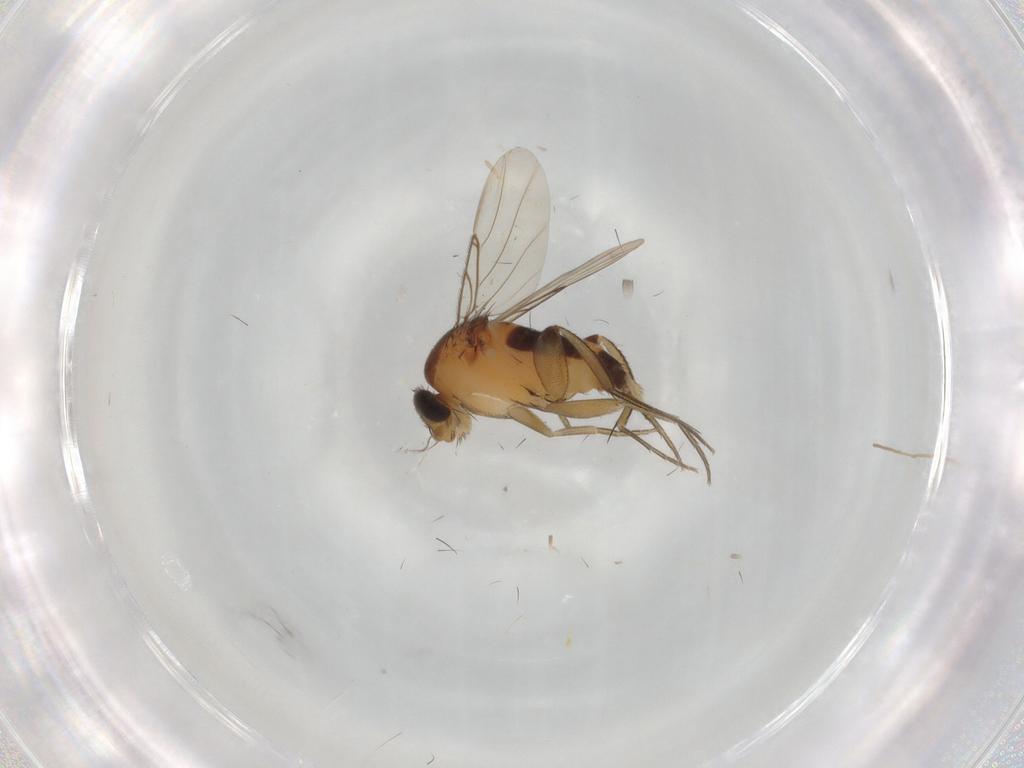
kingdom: Animalia
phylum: Arthropoda
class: Insecta
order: Diptera
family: Chironomidae
